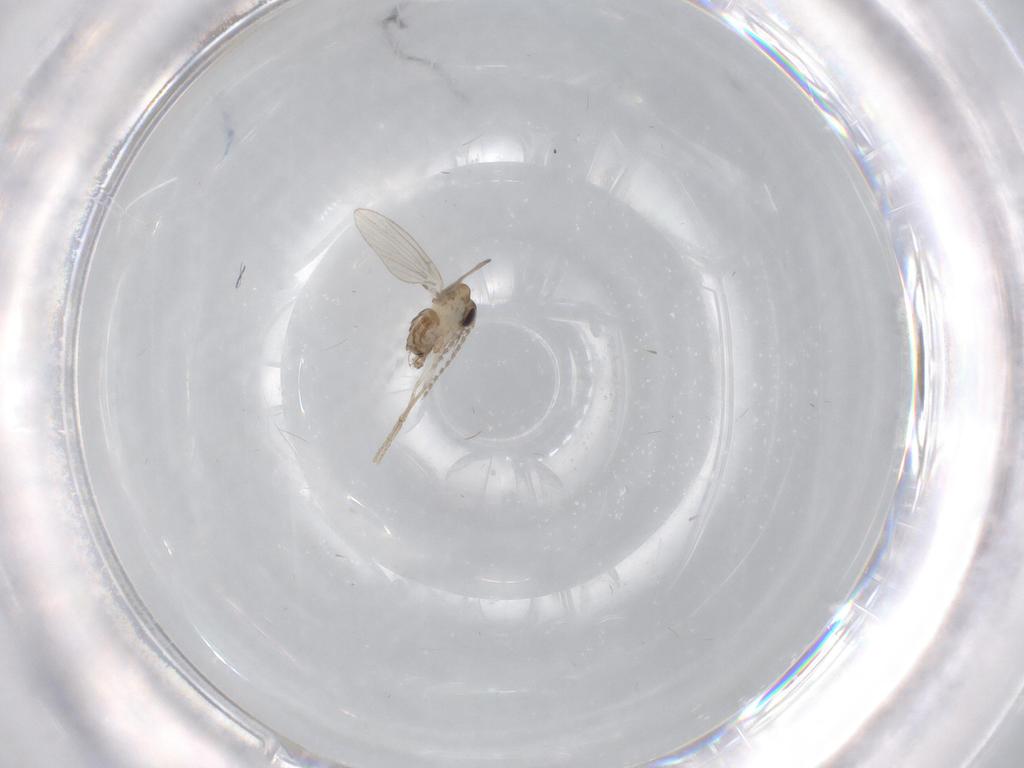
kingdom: Animalia
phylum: Arthropoda
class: Insecta
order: Diptera
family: Psychodidae
